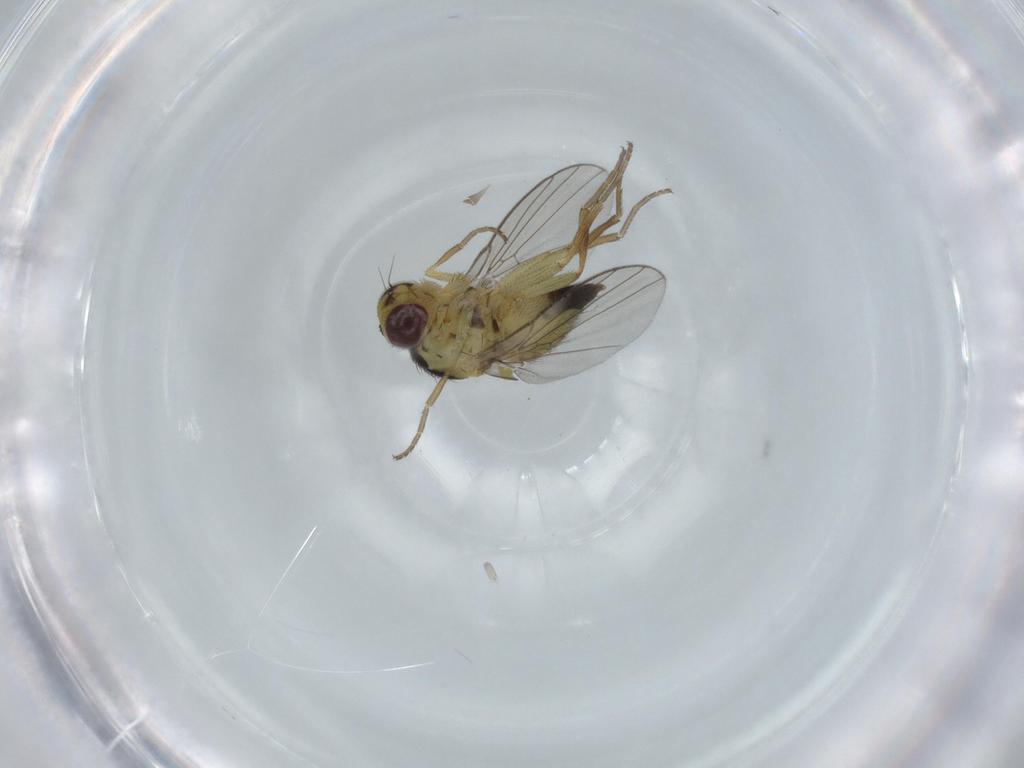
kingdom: Animalia
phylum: Arthropoda
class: Insecta
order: Diptera
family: Agromyzidae
